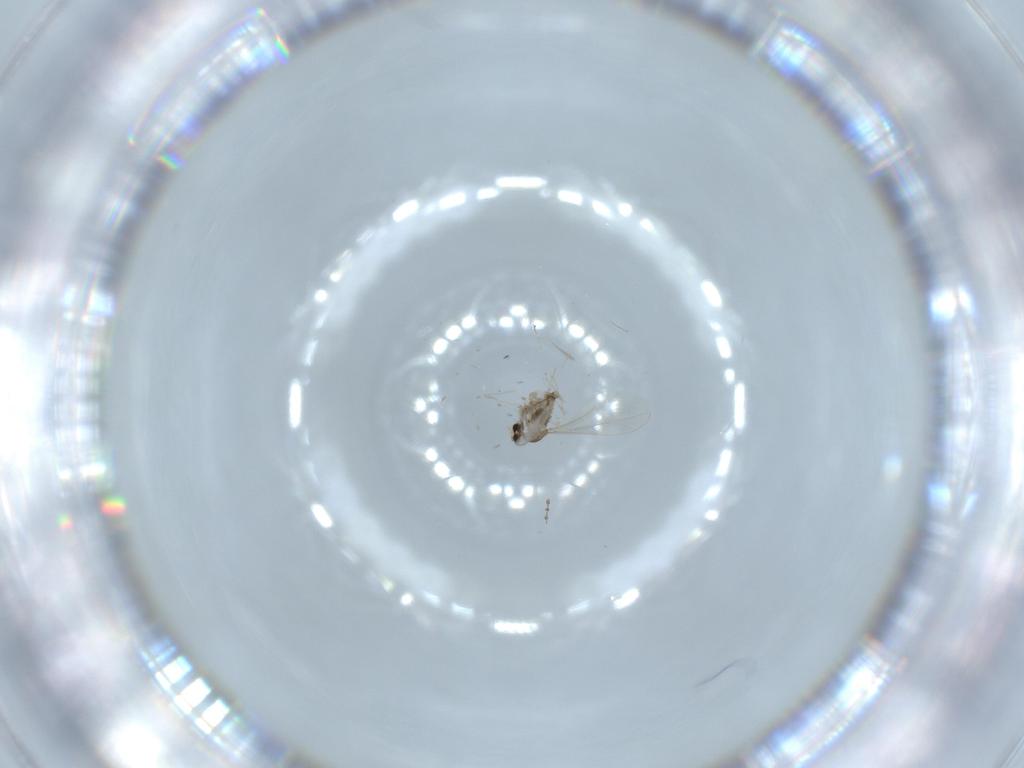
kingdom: Animalia
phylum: Arthropoda
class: Insecta
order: Diptera
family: Cecidomyiidae
